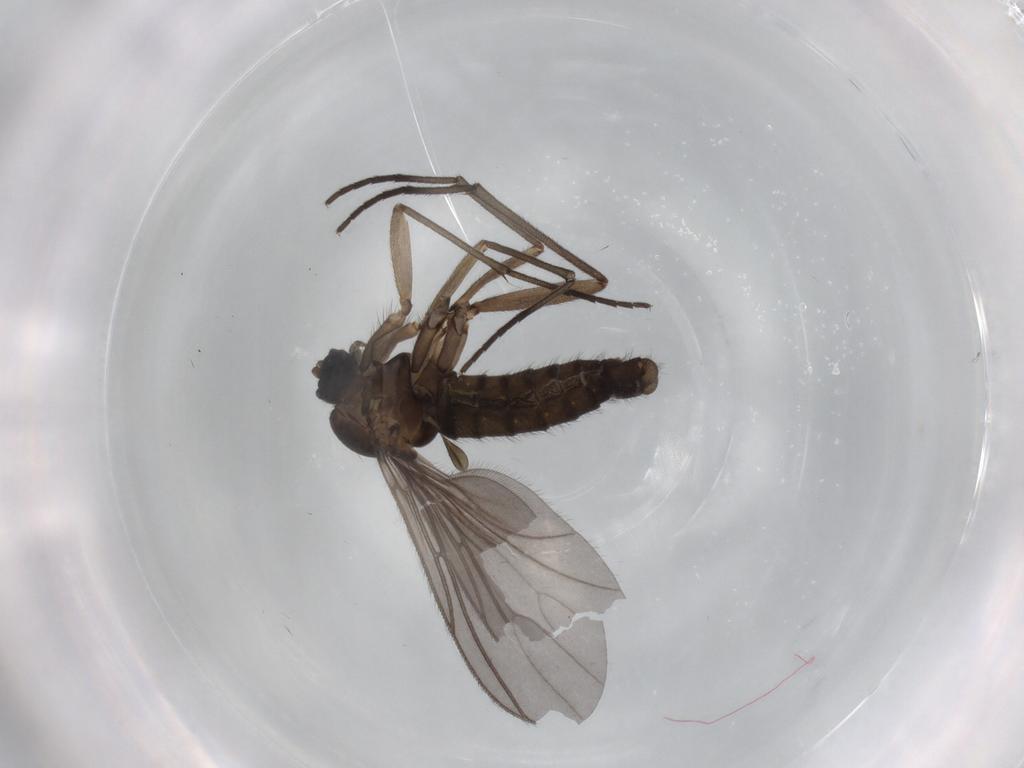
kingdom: Animalia
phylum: Arthropoda
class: Insecta
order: Diptera
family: Sciaridae
